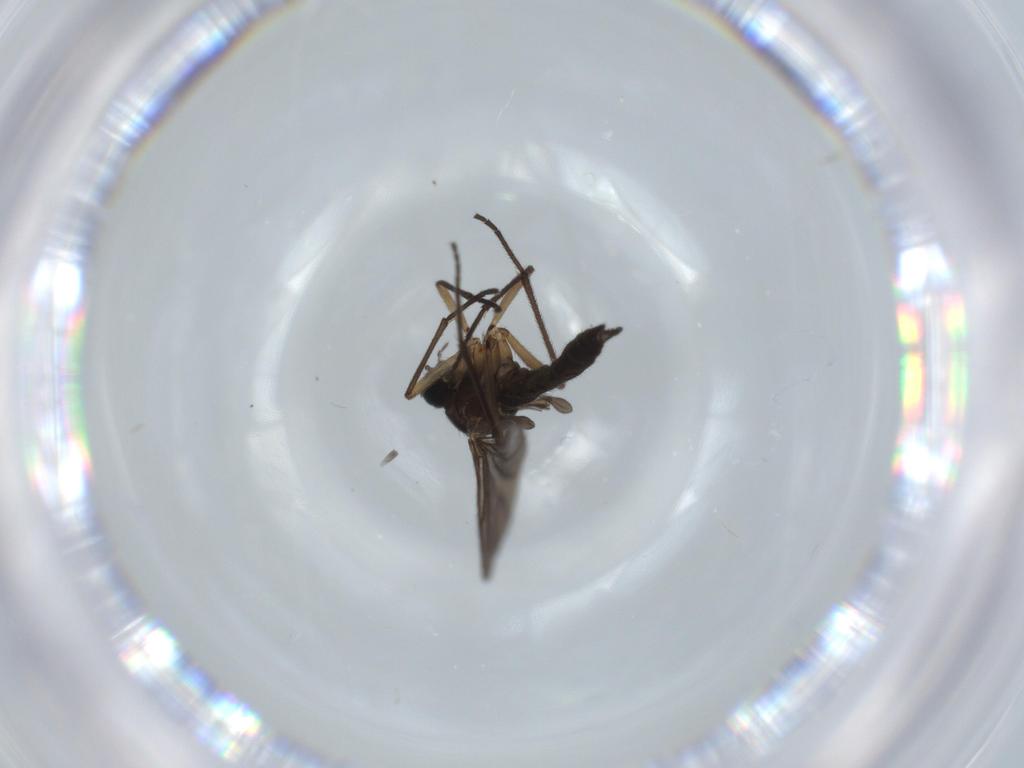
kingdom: Animalia
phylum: Arthropoda
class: Insecta
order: Diptera
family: Sciaridae
